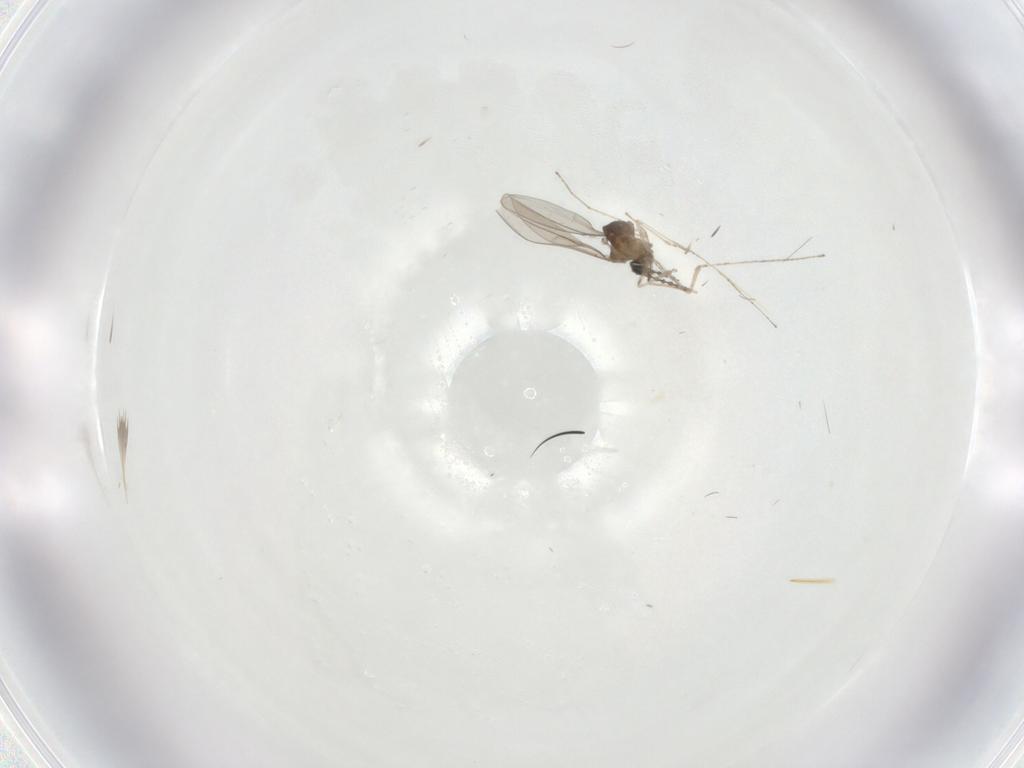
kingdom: Animalia
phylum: Arthropoda
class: Insecta
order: Diptera
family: Cecidomyiidae
